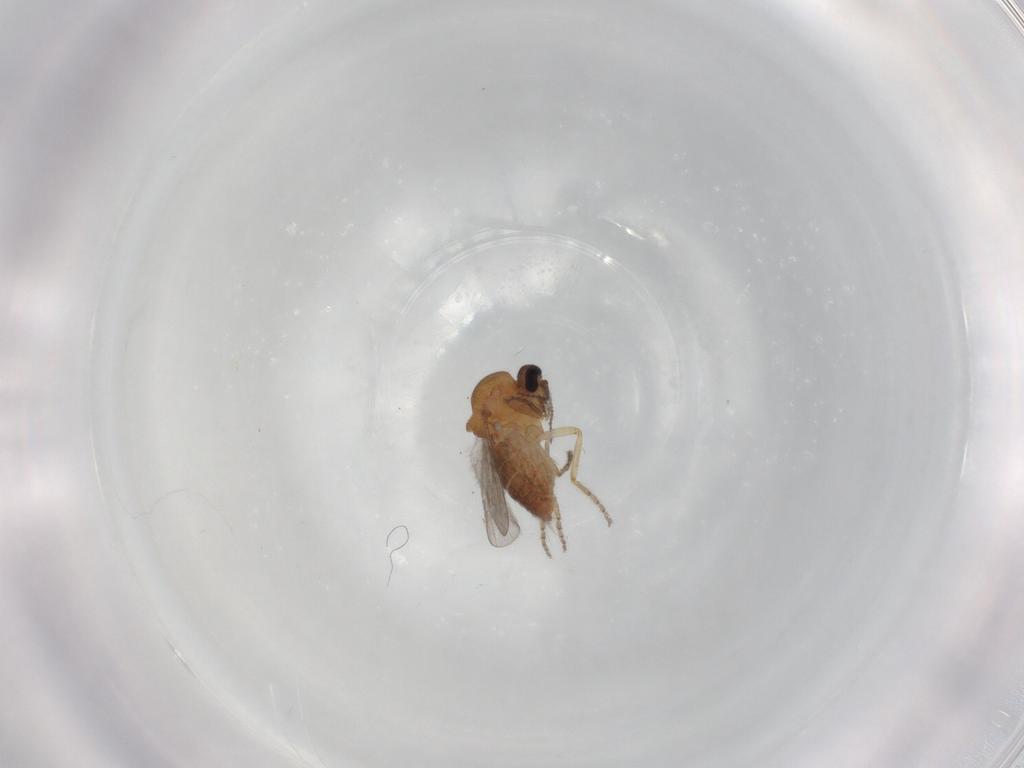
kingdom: Animalia
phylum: Arthropoda
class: Insecta
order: Diptera
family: Ceratopogonidae
